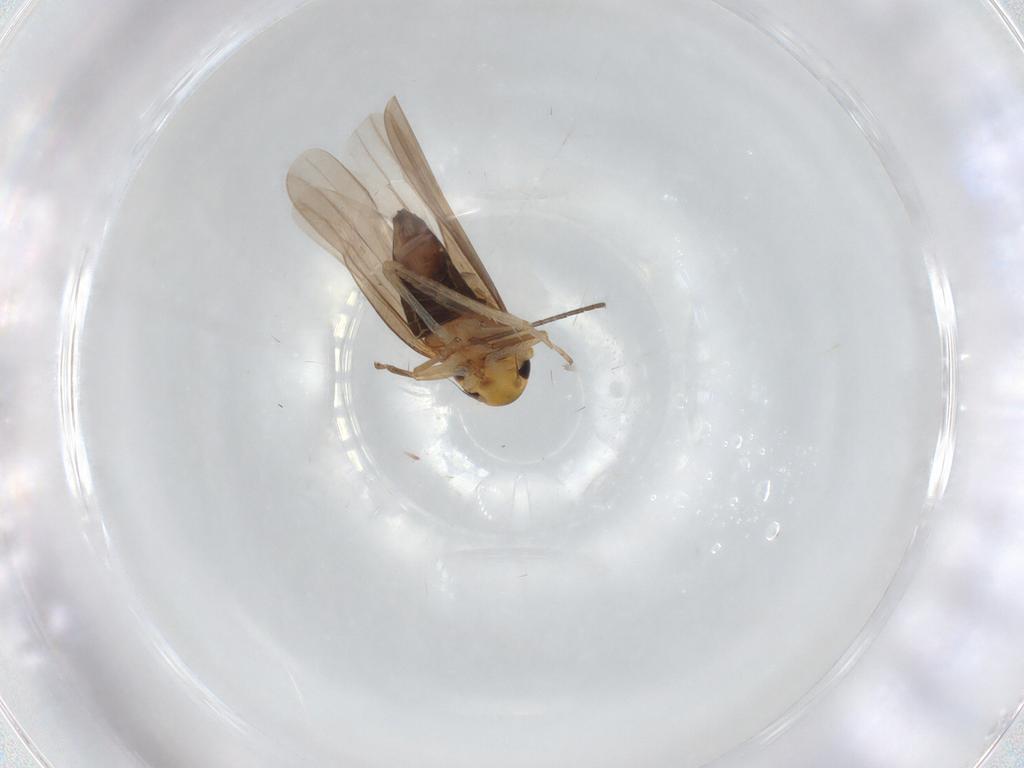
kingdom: Animalia
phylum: Arthropoda
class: Insecta
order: Hemiptera
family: Cicadellidae
